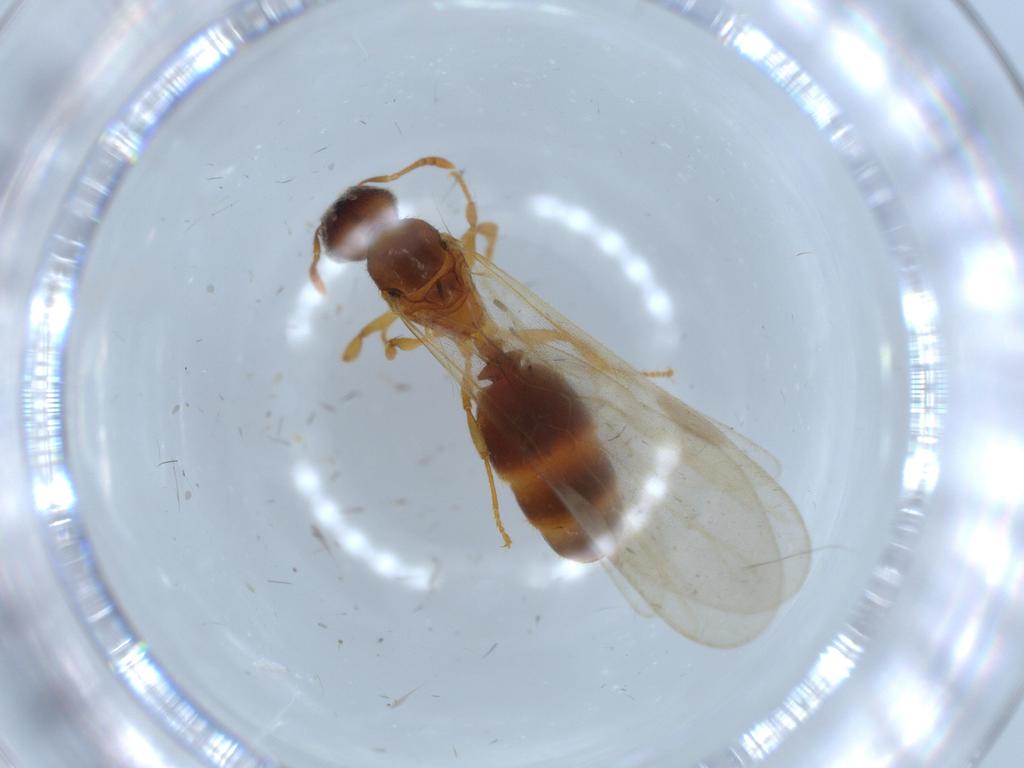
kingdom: Animalia
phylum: Arthropoda
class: Insecta
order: Hymenoptera
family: Formicidae
